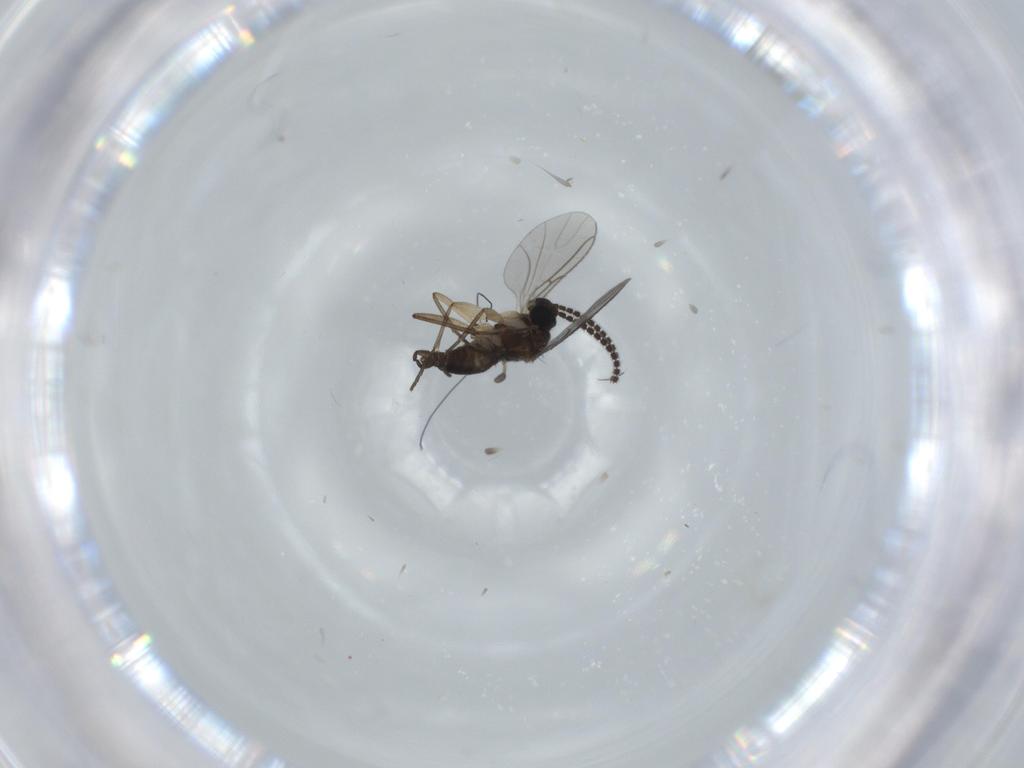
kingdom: Animalia
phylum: Arthropoda
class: Insecta
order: Diptera
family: Sciaridae
